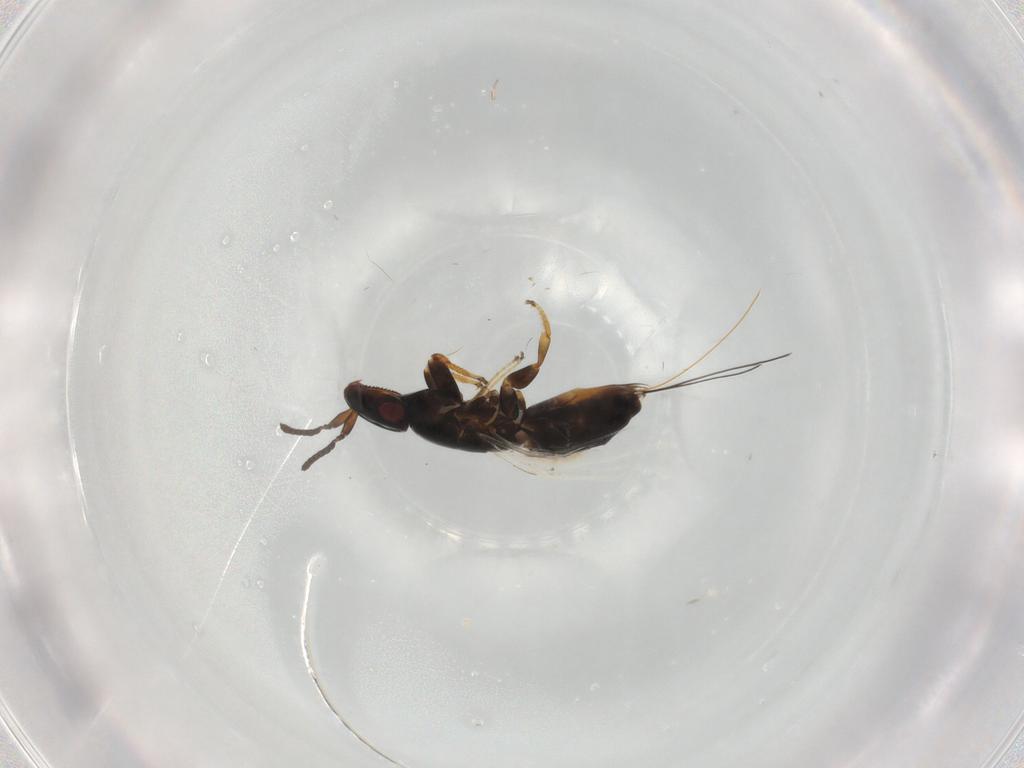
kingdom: Animalia
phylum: Arthropoda
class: Insecta
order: Hymenoptera
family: Agaonidae
